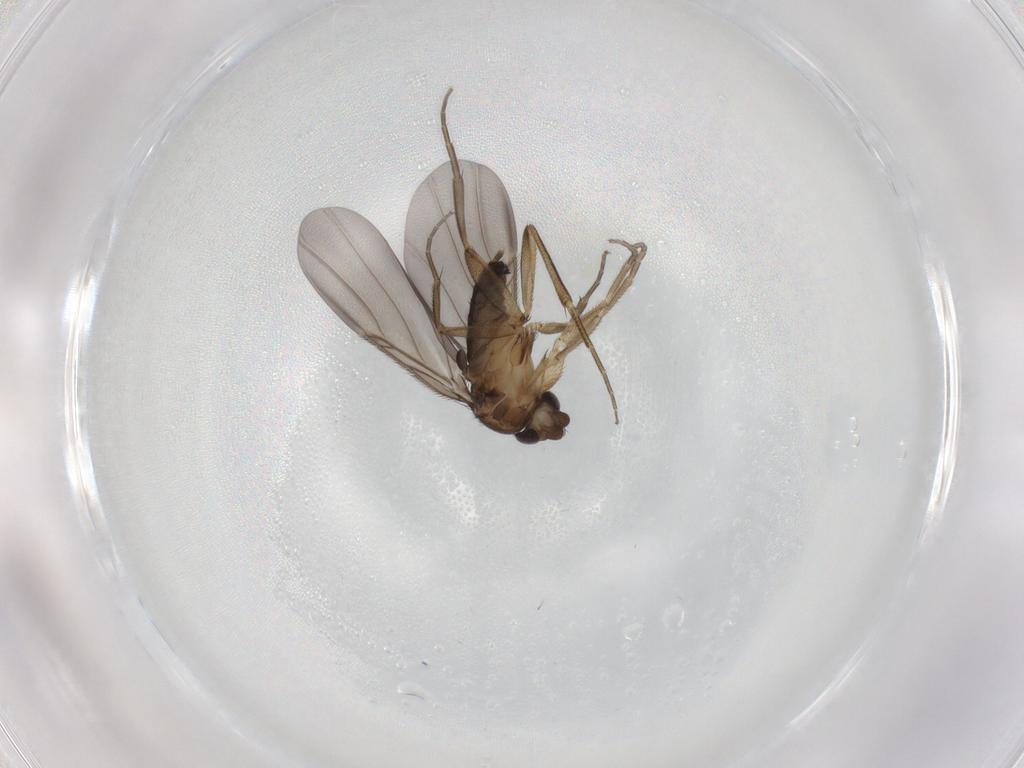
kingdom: Animalia
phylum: Arthropoda
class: Insecta
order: Diptera
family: Phoridae
